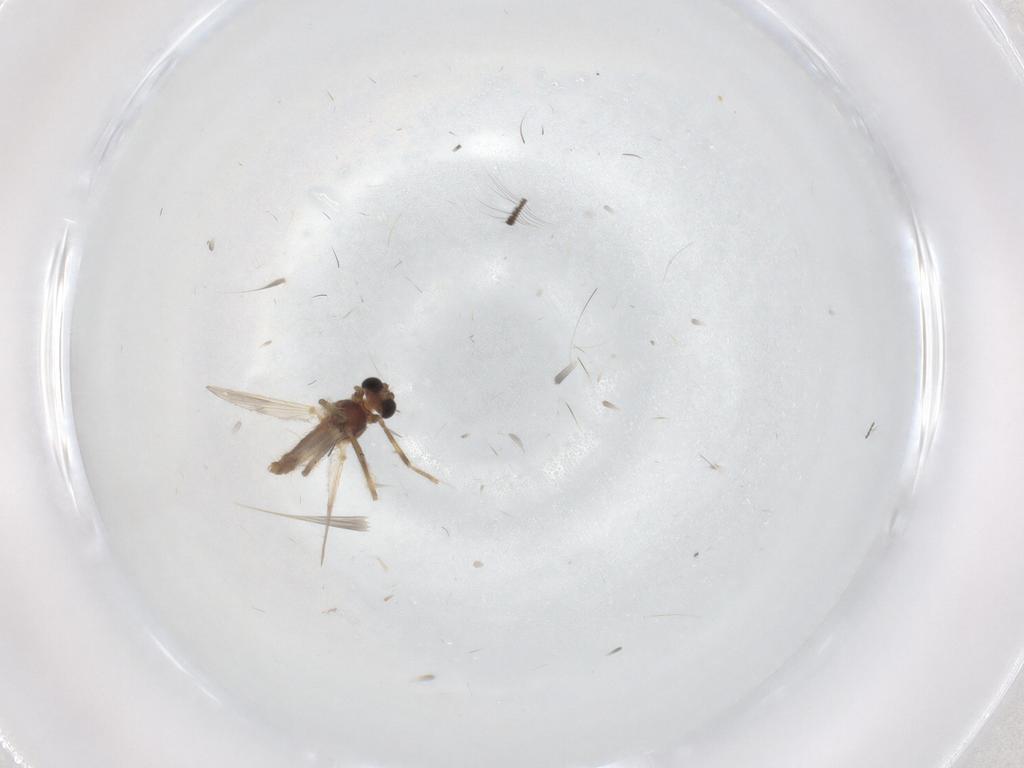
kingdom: Animalia
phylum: Arthropoda
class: Insecta
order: Diptera
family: Chironomidae
